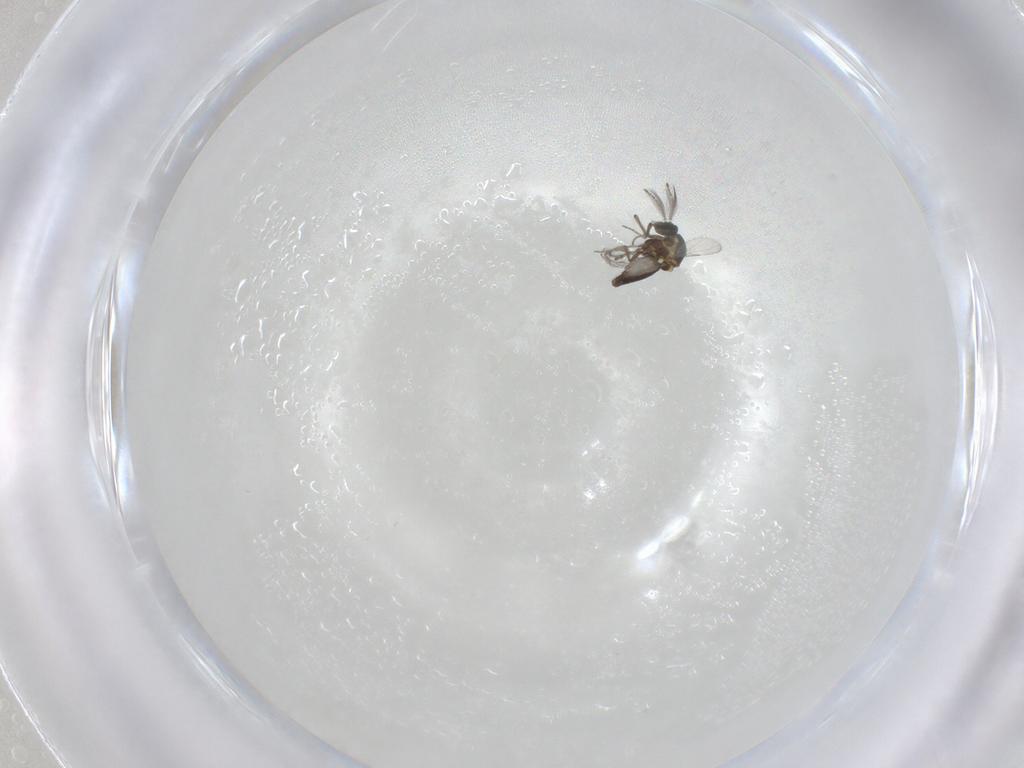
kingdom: Animalia
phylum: Arthropoda
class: Insecta
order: Diptera
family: Ceratopogonidae
